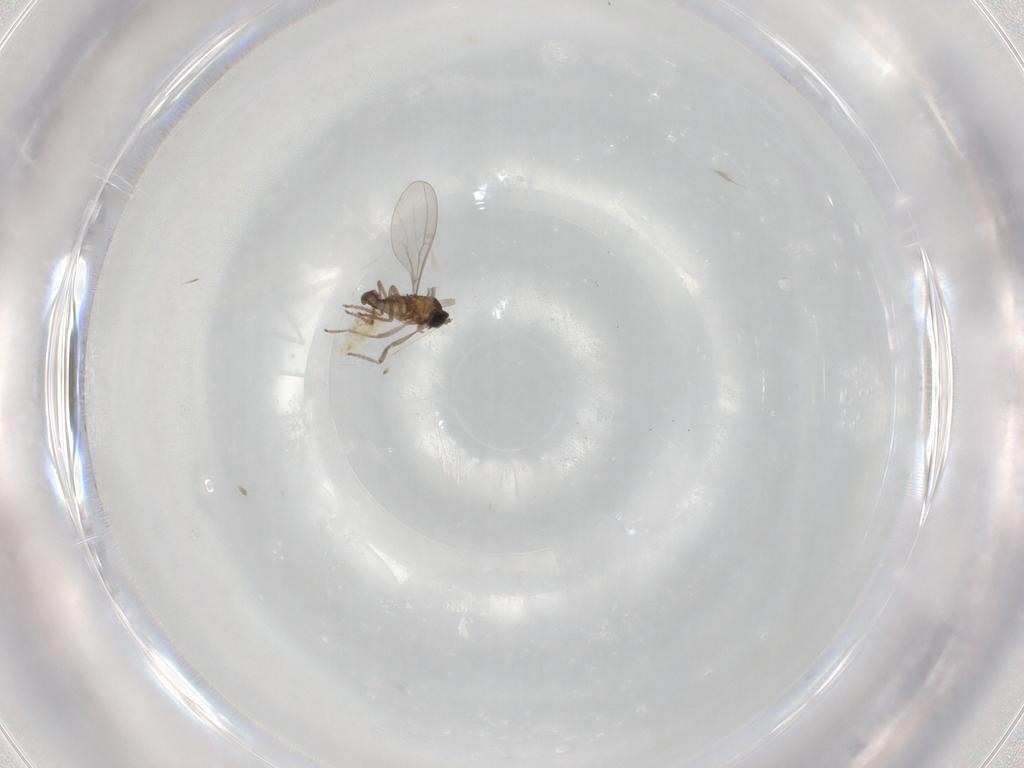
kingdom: Animalia
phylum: Arthropoda
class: Insecta
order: Diptera
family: Cecidomyiidae
